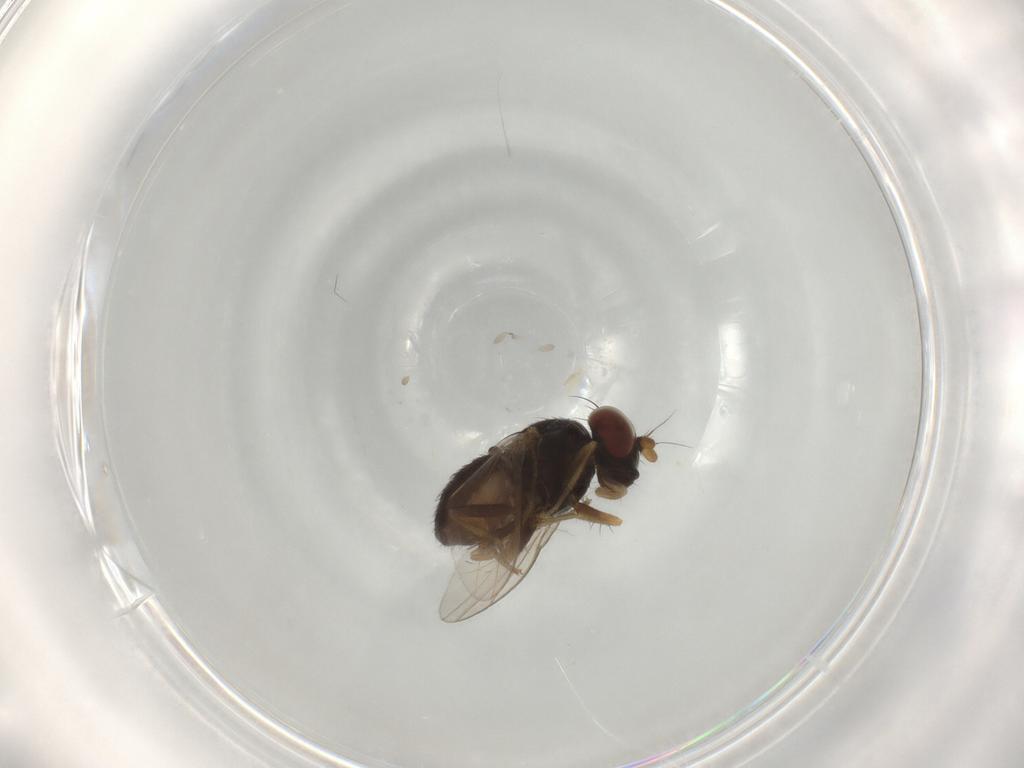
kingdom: Animalia
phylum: Arthropoda
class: Insecta
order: Diptera
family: Chironomidae
